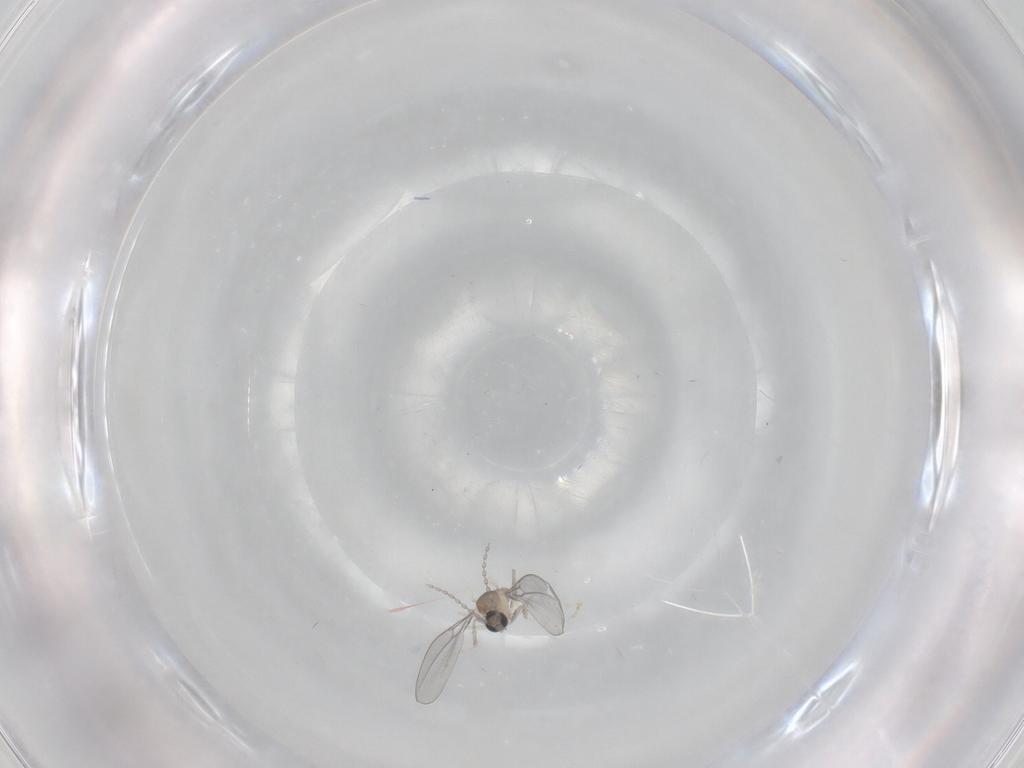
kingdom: Animalia
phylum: Arthropoda
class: Insecta
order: Diptera
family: Cecidomyiidae
